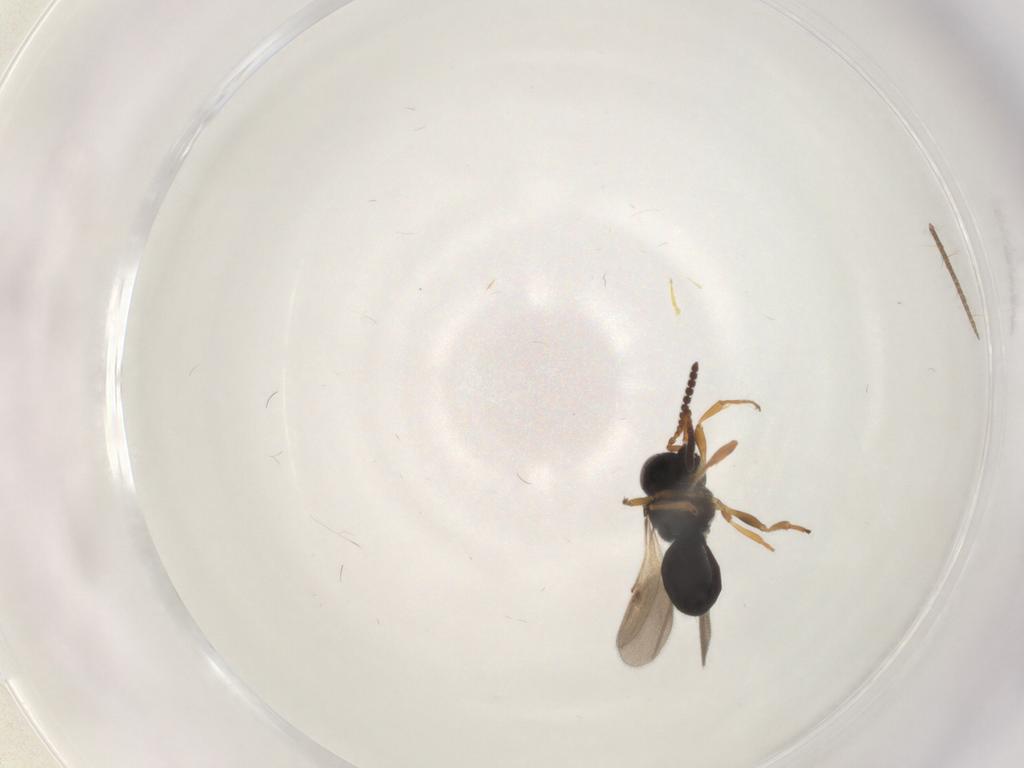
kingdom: Animalia
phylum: Arthropoda
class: Insecta
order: Hymenoptera
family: Scelionidae
